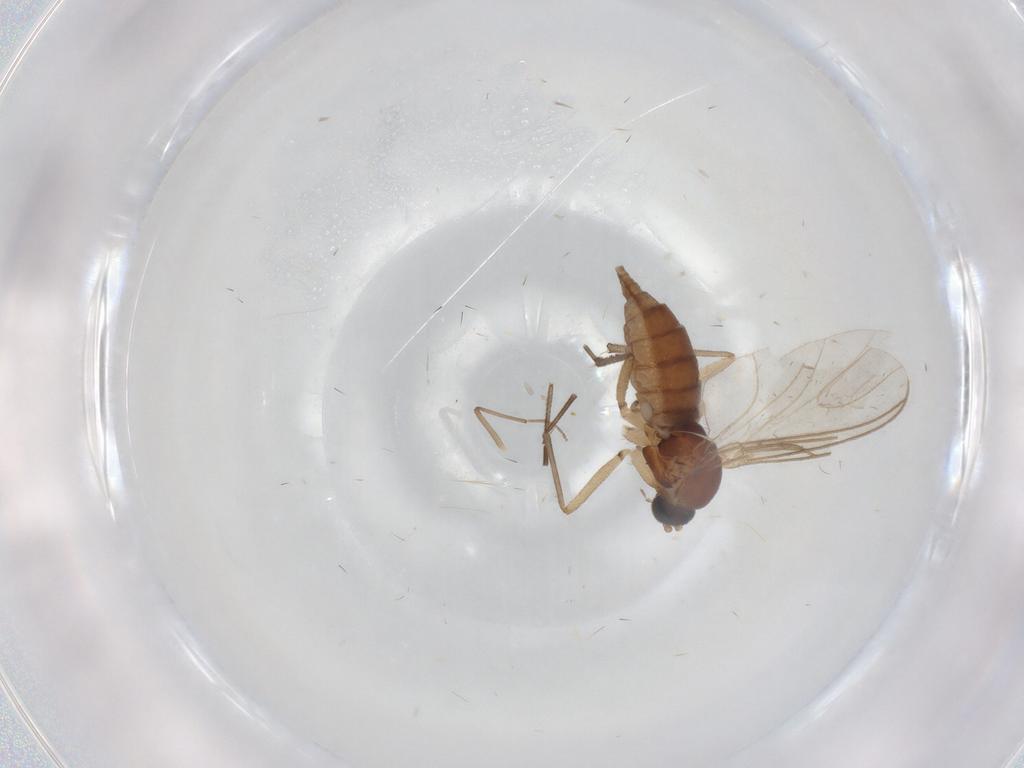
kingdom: Animalia
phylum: Arthropoda
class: Insecta
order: Diptera
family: Sciaridae
